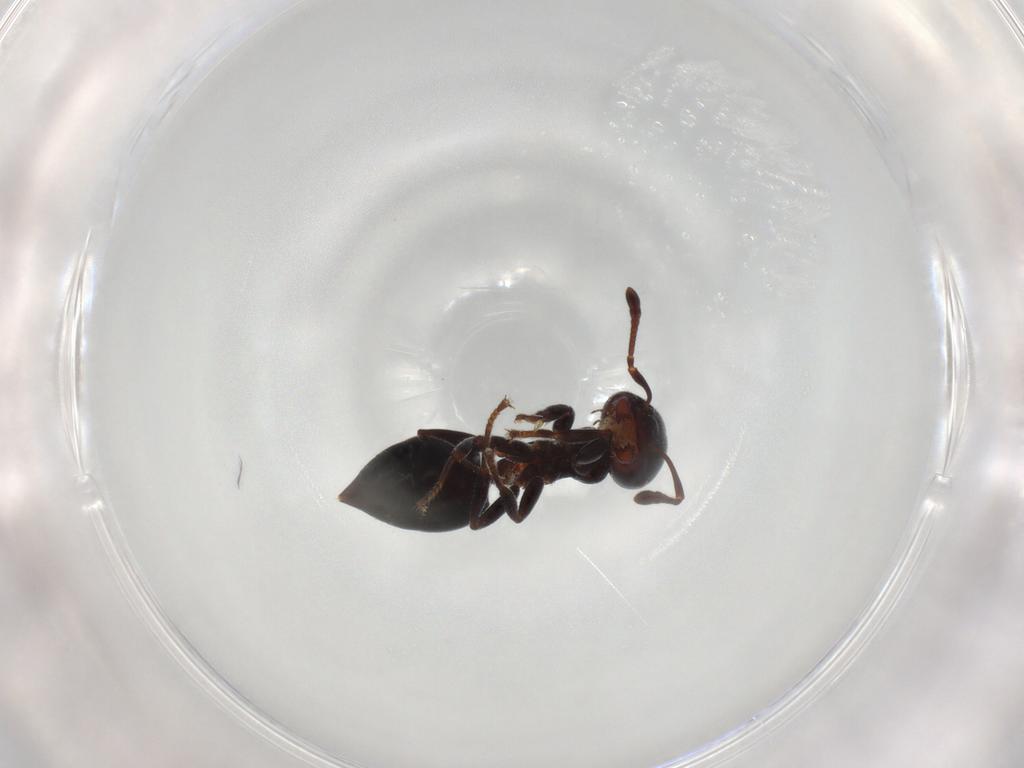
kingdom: Animalia
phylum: Arthropoda
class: Insecta
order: Hymenoptera
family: Formicidae
